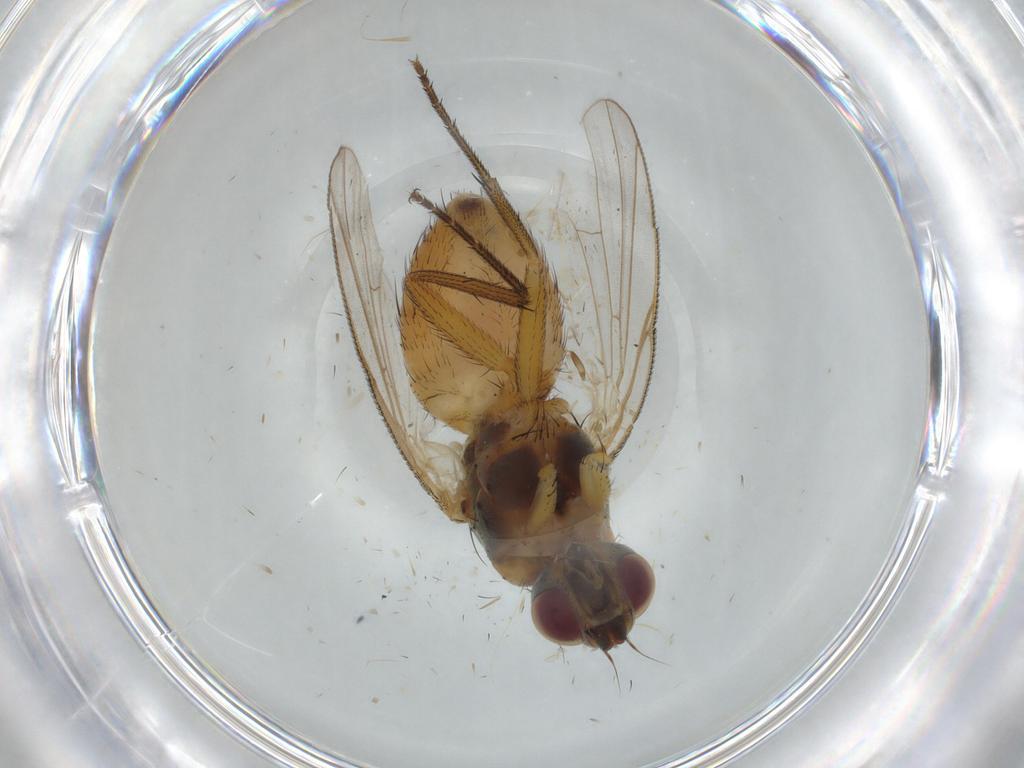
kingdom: Animalia
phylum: Arthropoda
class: Insecta
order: Diptera
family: Muscidae
